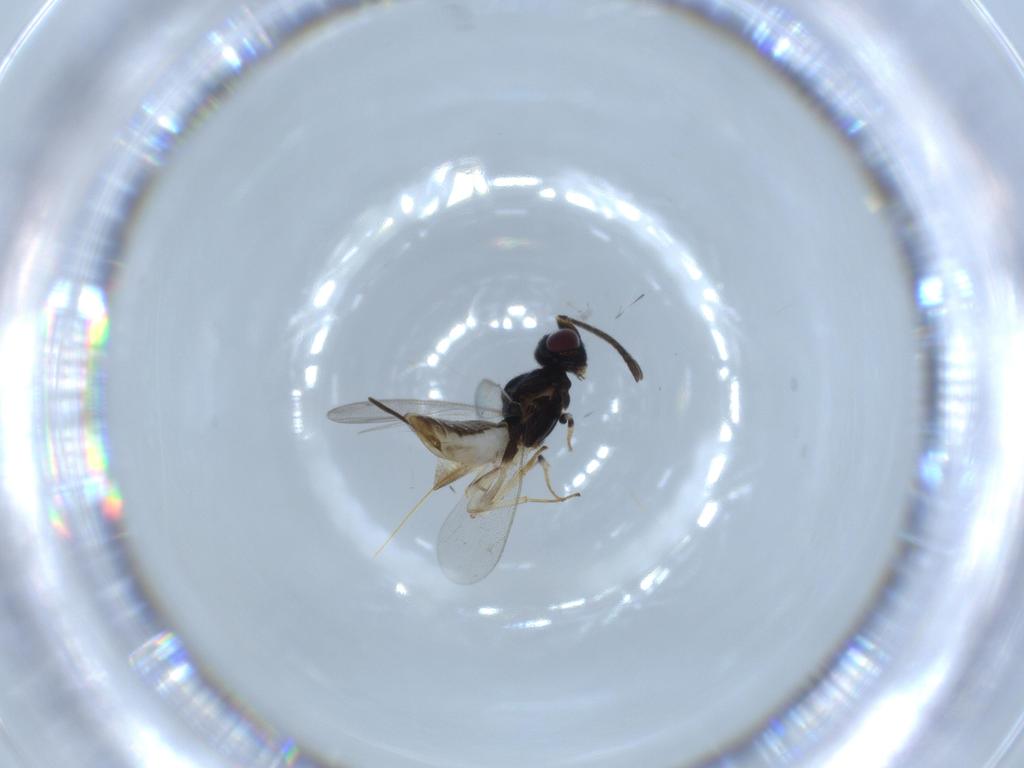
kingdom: Animalia
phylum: Arthropoda
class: Insecta
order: Hymenoptera
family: Eupelmidae
